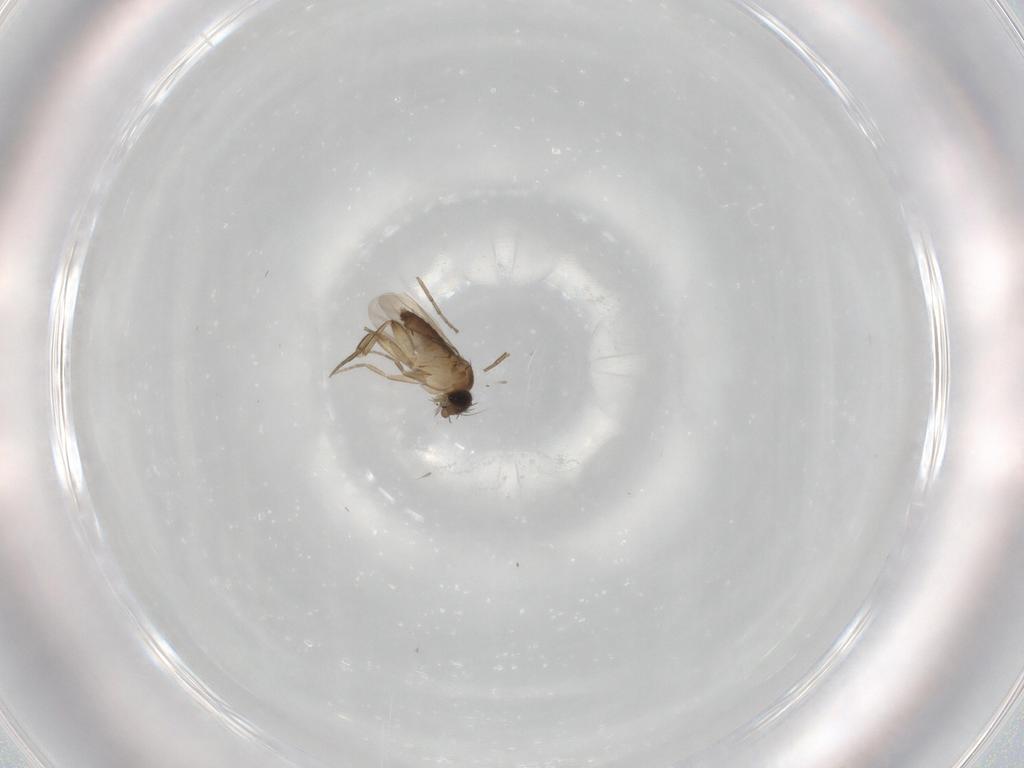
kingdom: Animalia
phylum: Arthropoda
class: Insecta
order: Diptera
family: Phoridae
